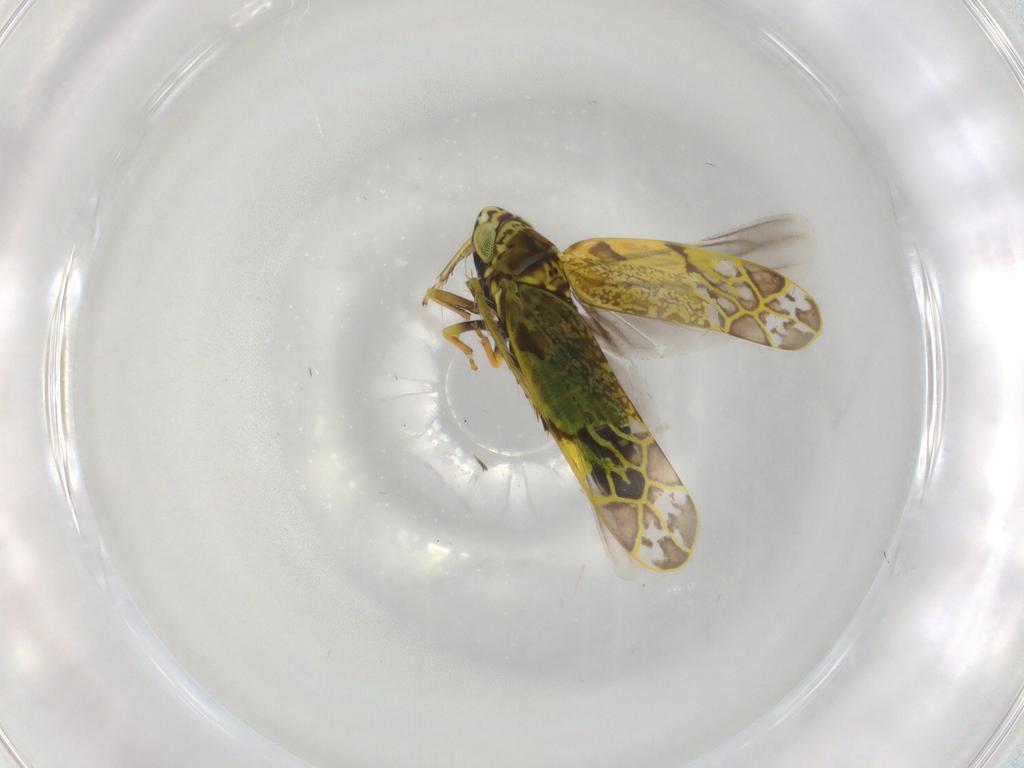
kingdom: Animalia
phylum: Arthropoda
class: Insecta
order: Hemiptera
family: Cicadellidae
